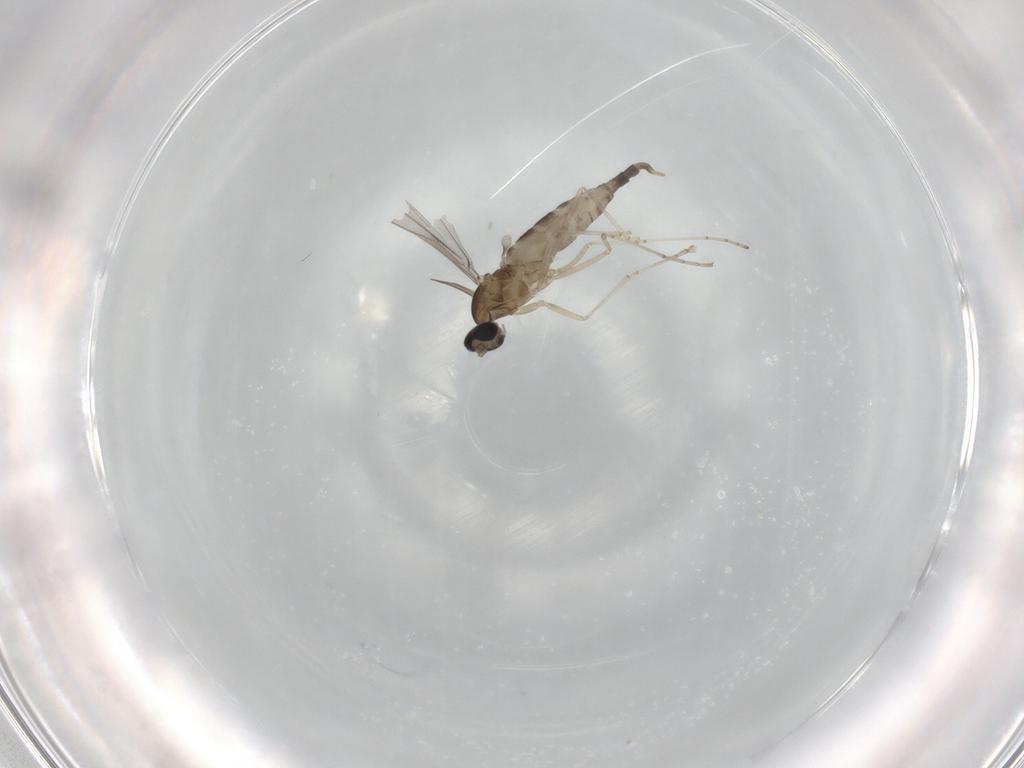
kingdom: Animalia
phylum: Arthropoda
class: Insecta
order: Diptera
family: Cecidomyiidae
